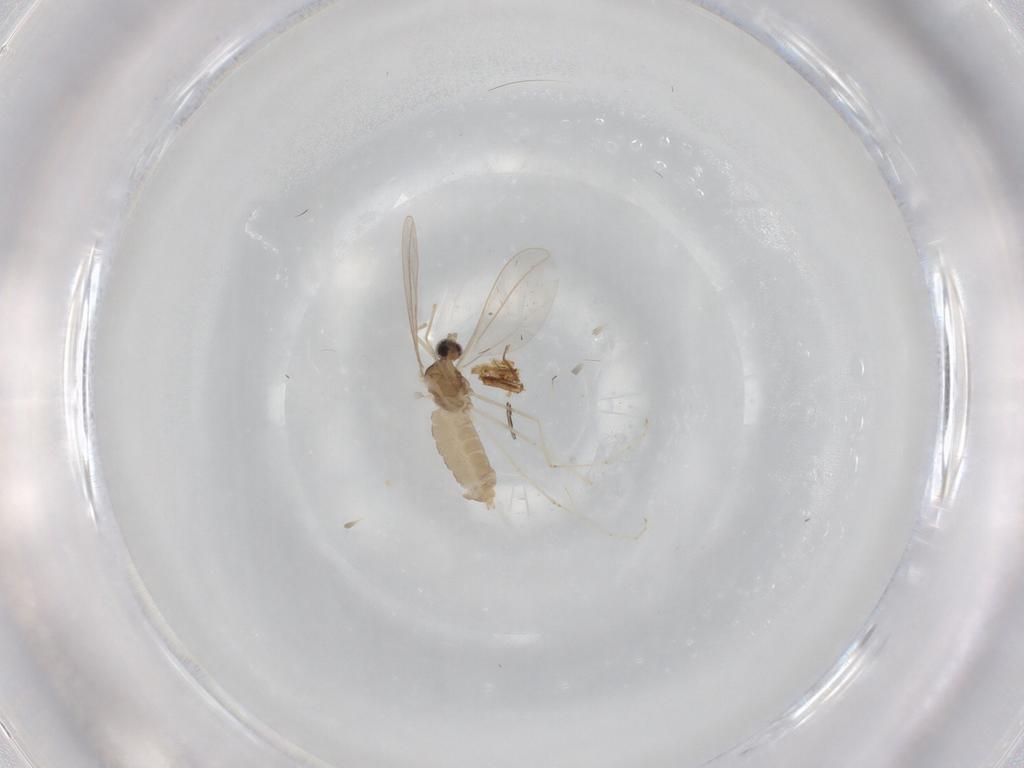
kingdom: Animalia
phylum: Arthropoda
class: Insecta
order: Diptera
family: Cecidomyiidae
